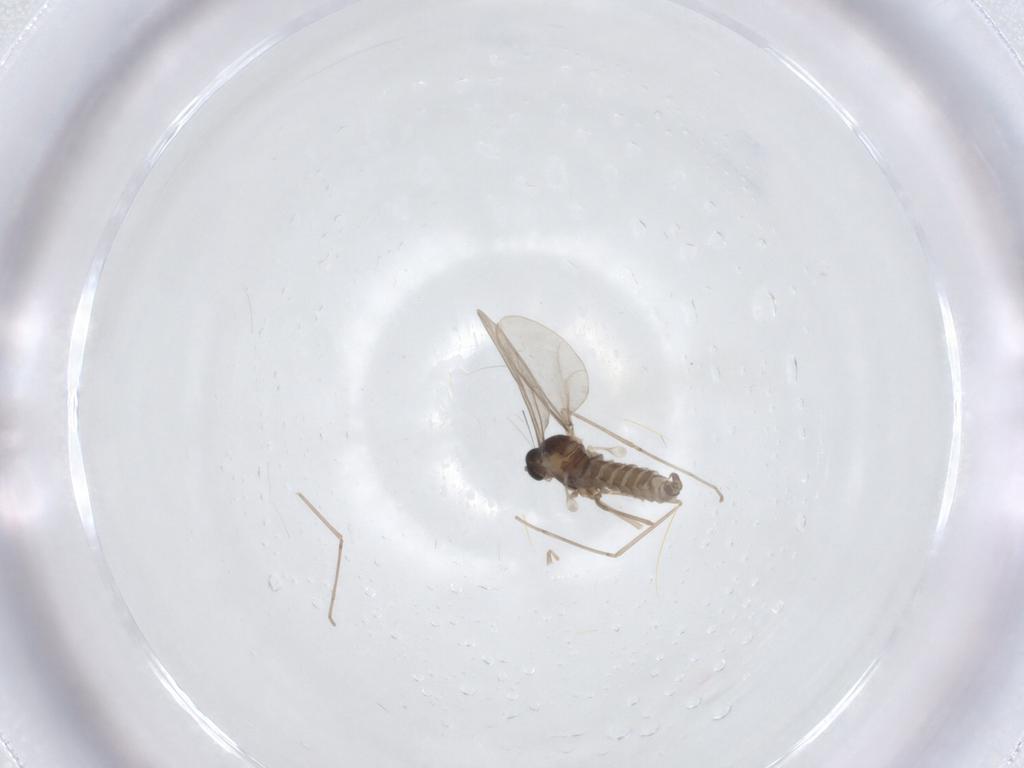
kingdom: Animalia
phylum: Arthropoda
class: Insecta
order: Diptera
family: Cecidomyiidae
